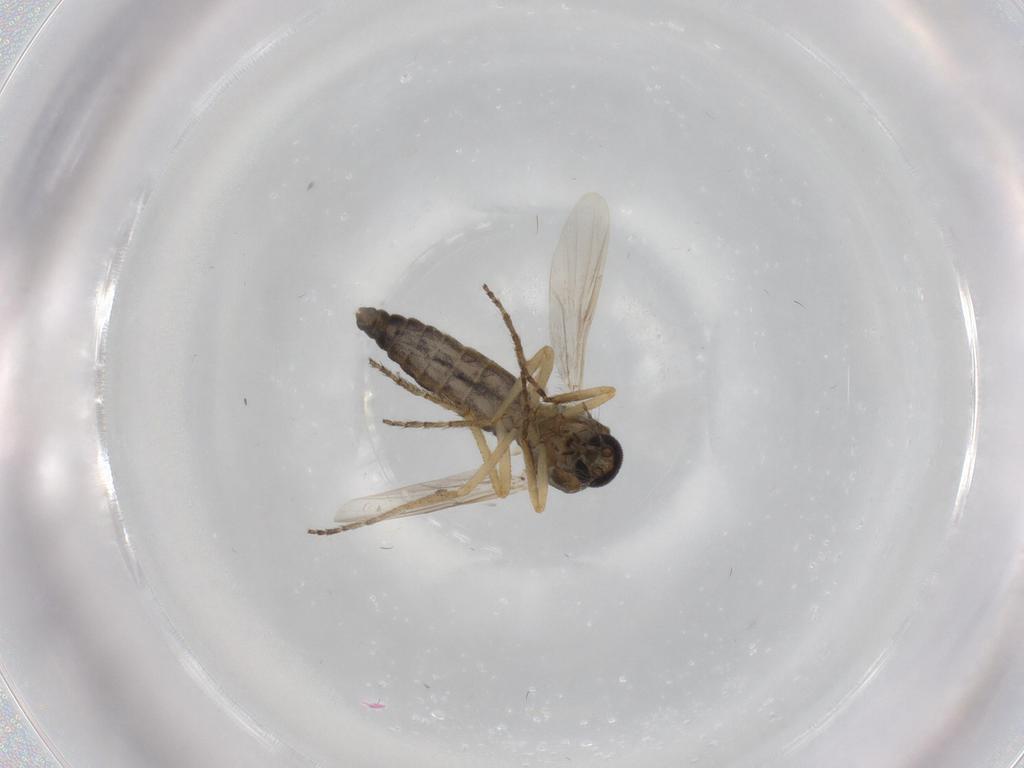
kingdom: Animalia
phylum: Arthropoda
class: Insecta
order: Diptera
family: Ceratopogonidae
